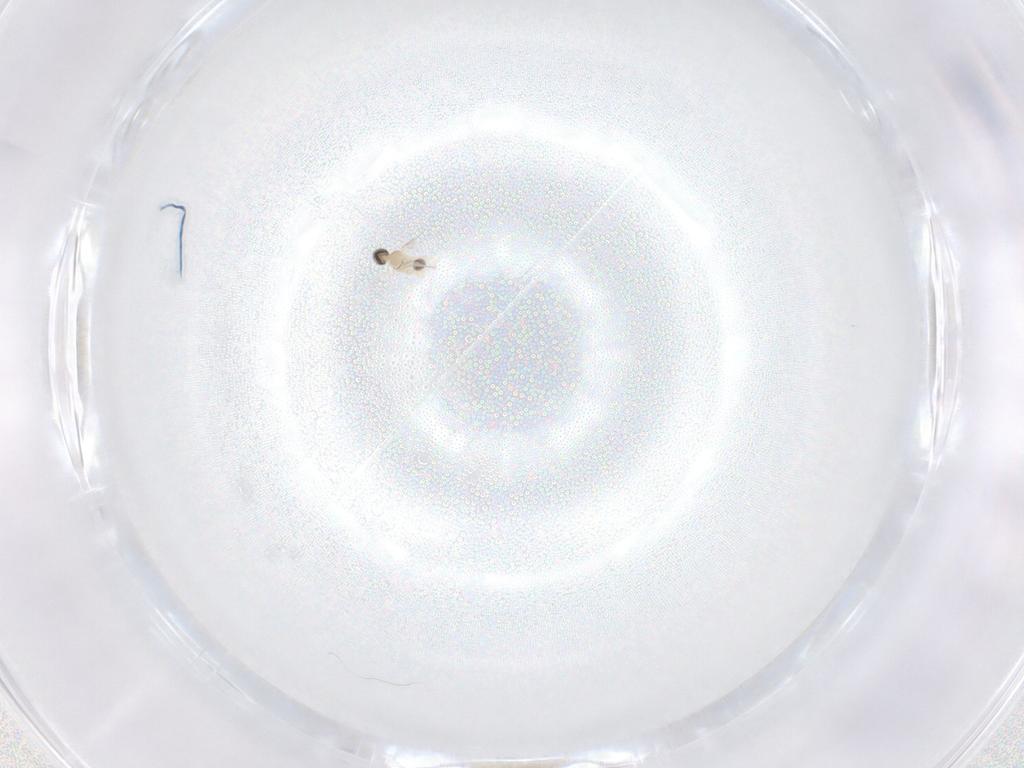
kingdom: Animalia
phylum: Arthropoda
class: Insecta
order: Diptera
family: Cecidomyiidae
